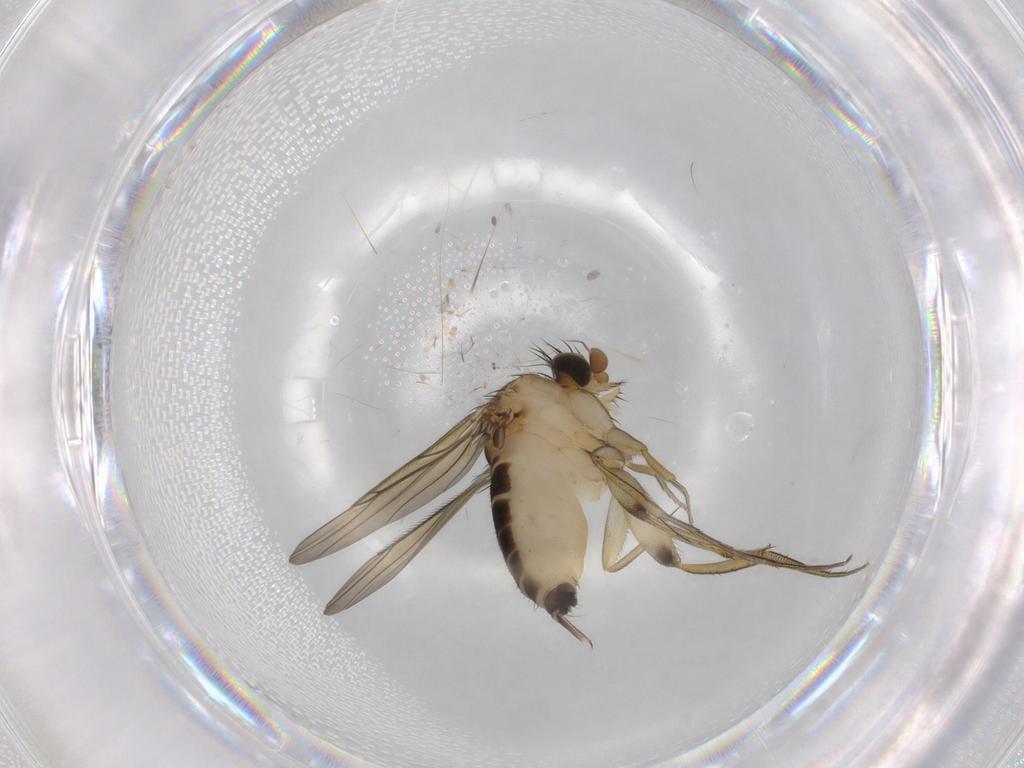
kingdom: Animalia
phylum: Arthropoda
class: Insecta
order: Diptera
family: Phoridae
